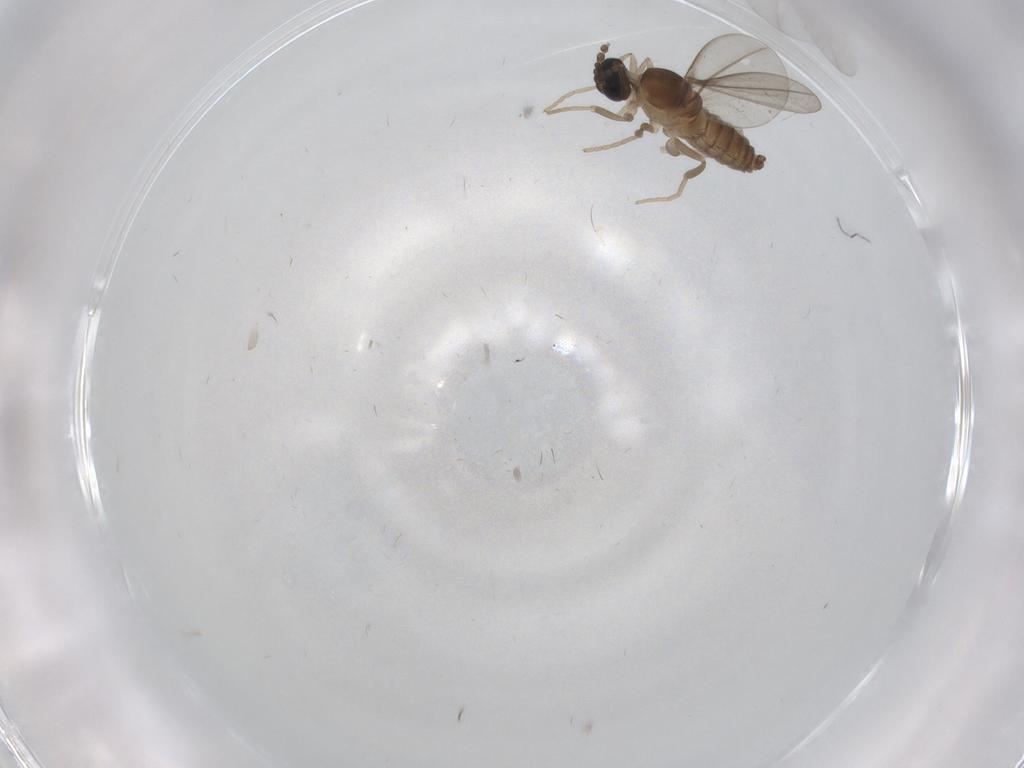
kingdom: Animalia
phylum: Arthropoda
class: Insecta
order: Diptera
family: Cecidomyiidae
